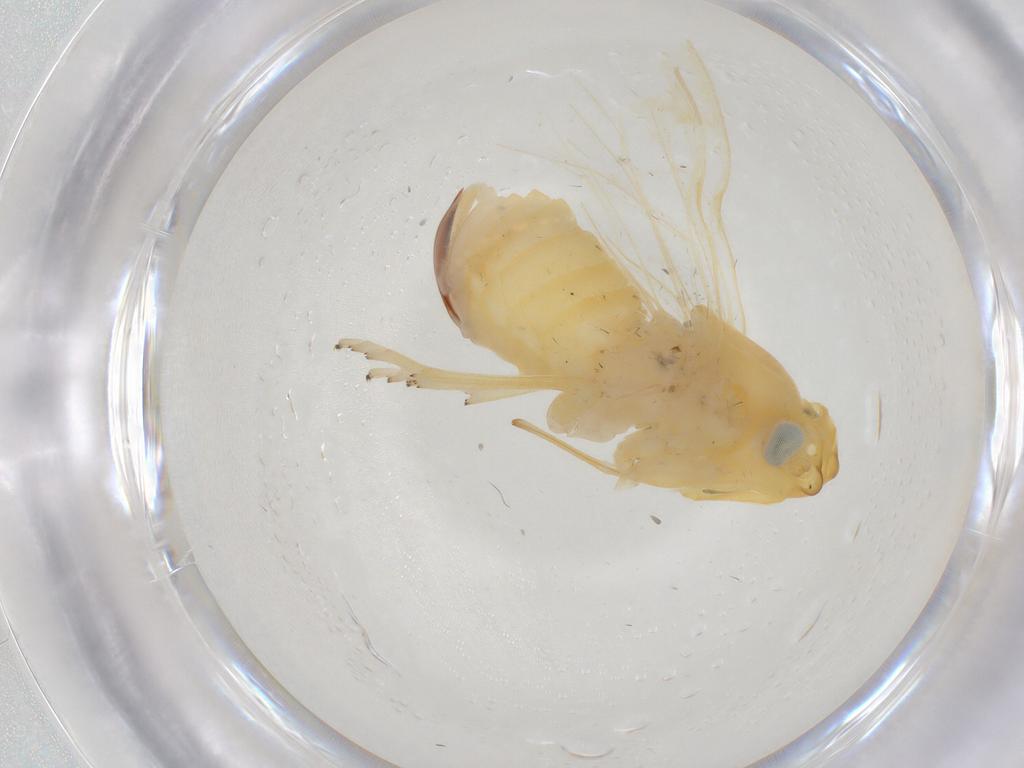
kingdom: Animalia
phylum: Arthropoda
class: Insecta
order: Hemiptera
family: Cixiidae
